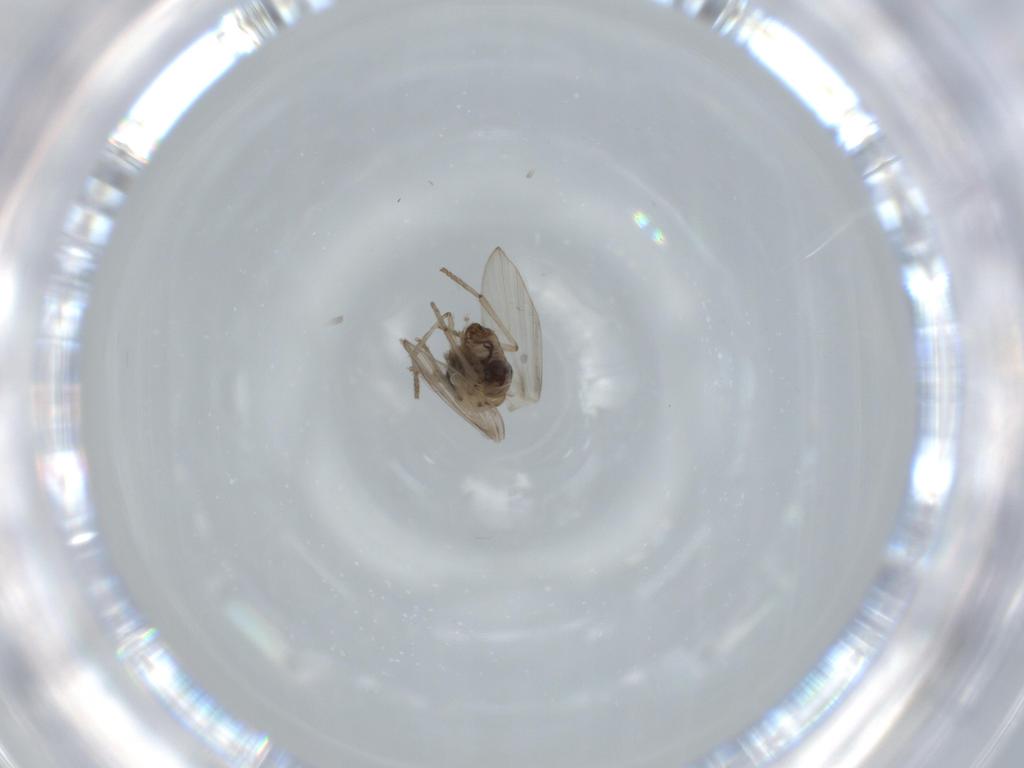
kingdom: Animalia
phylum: Arthropoda
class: Insecta
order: Diptera
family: Psychodidae
